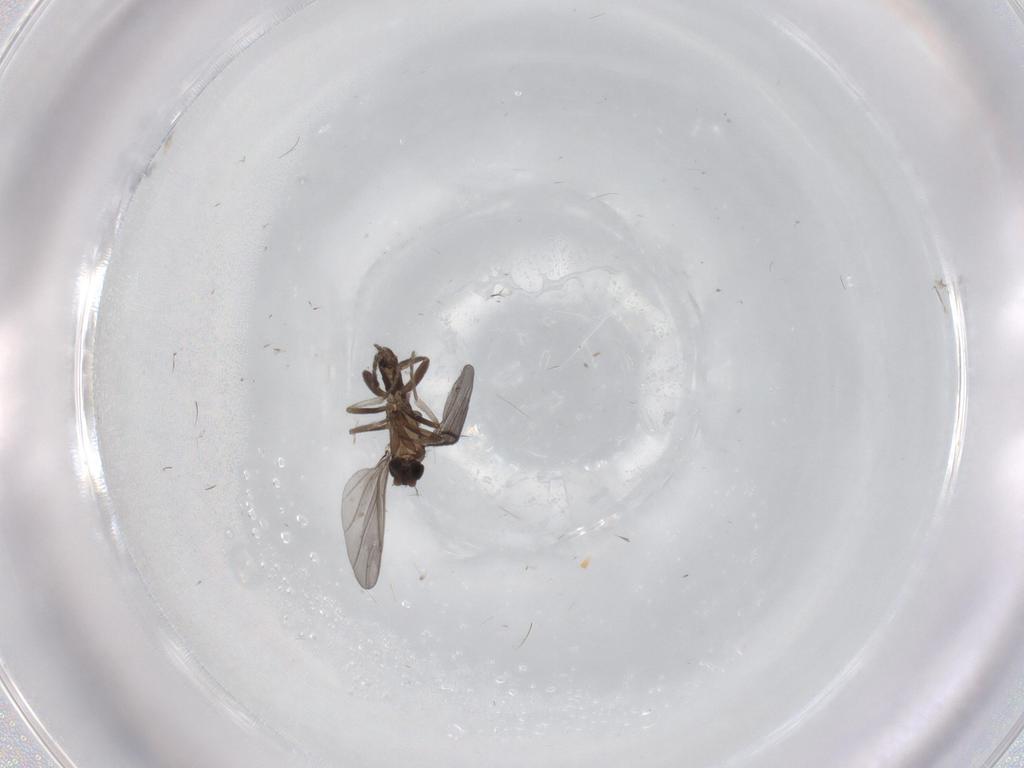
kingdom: Animalia
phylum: Arthropoda
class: Insecta
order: Diptera
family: Phoridae
